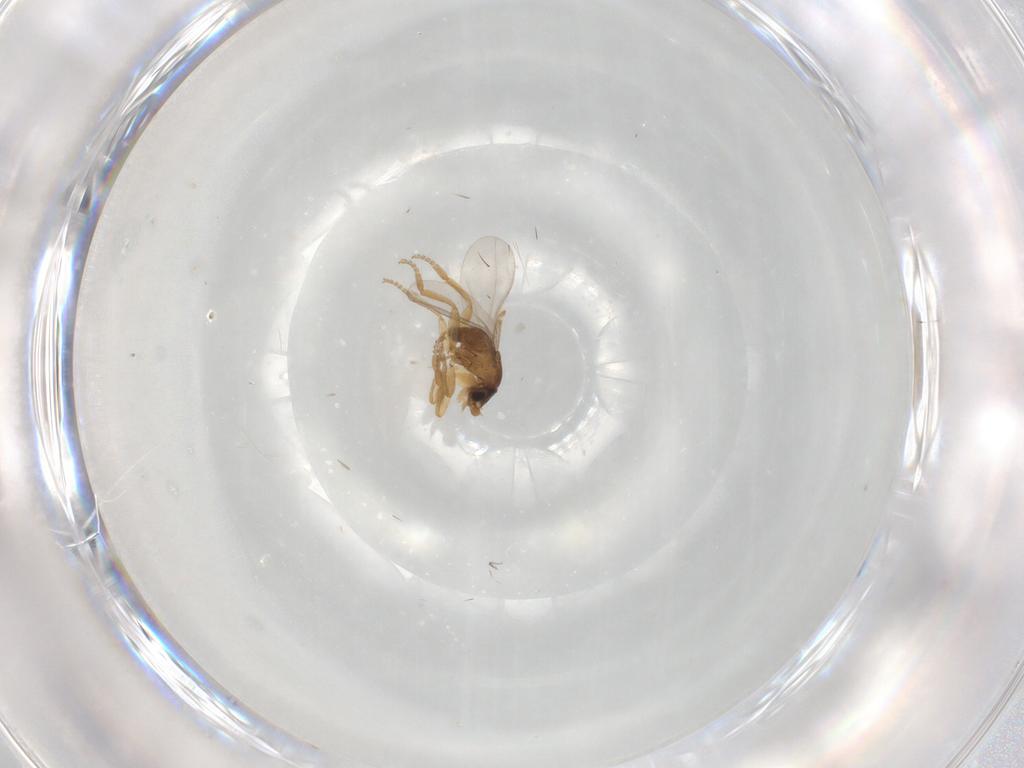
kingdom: Animalia
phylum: Arthropoda
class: Insecta
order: Diptera
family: Phoridae
